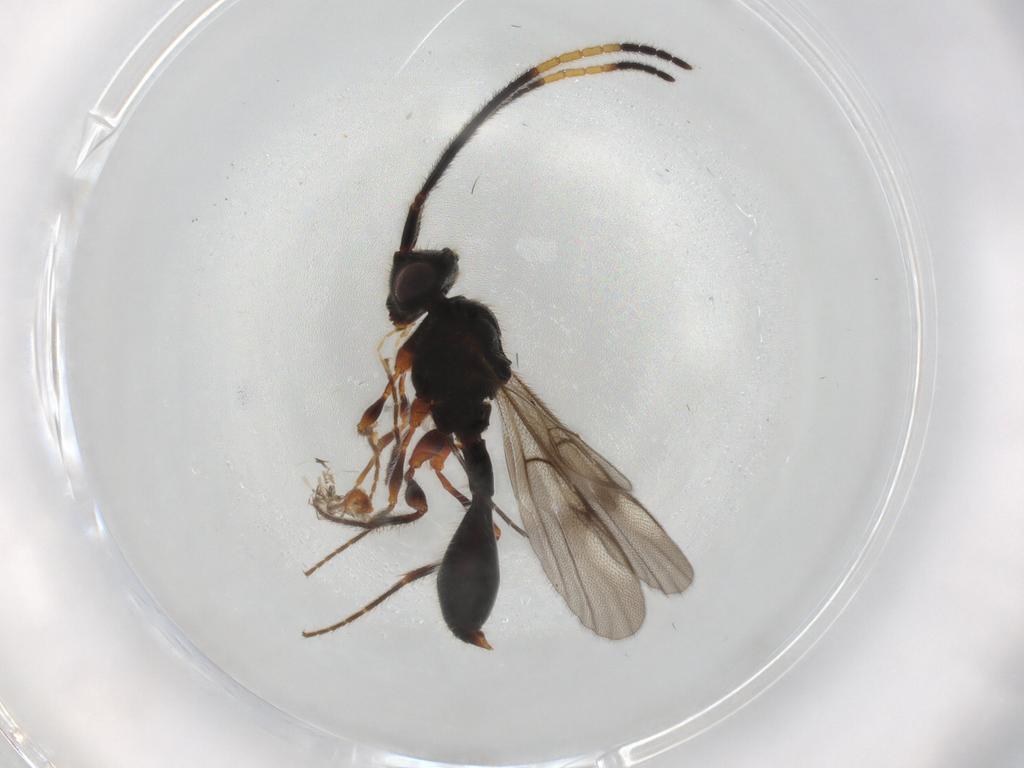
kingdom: Animalia
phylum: Arthropoda
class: Insecta
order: Hymenoptera
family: Diapriidae
